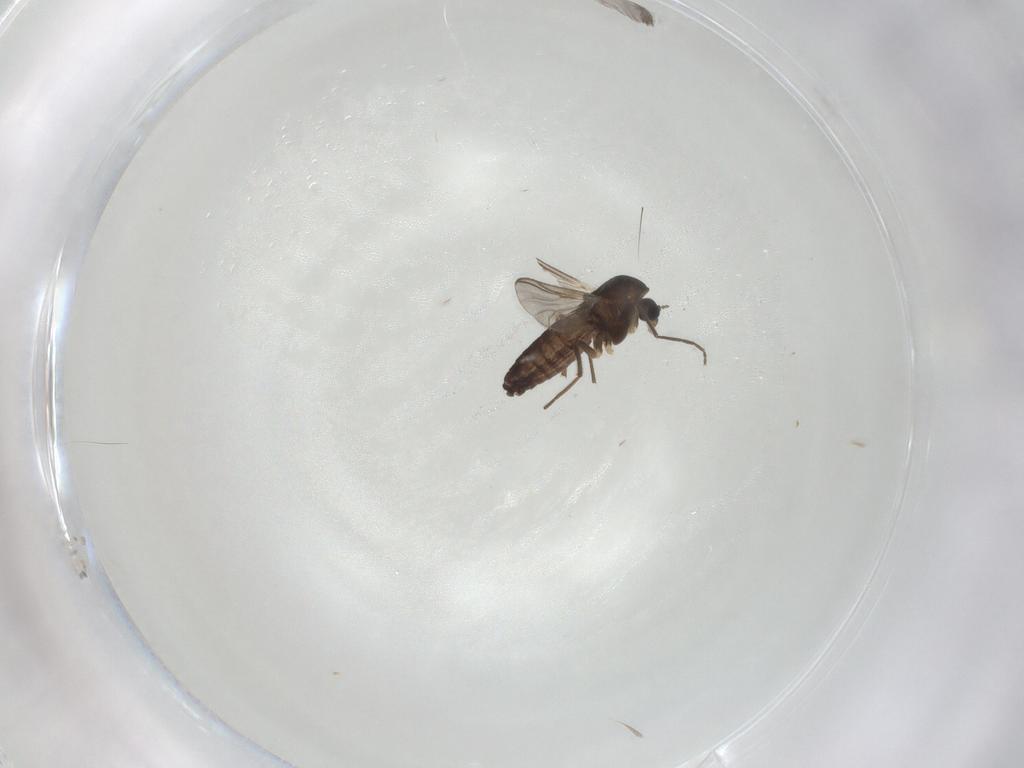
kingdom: Animalia
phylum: Arthropoda
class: Insecta
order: Diptera
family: Chironomidae
